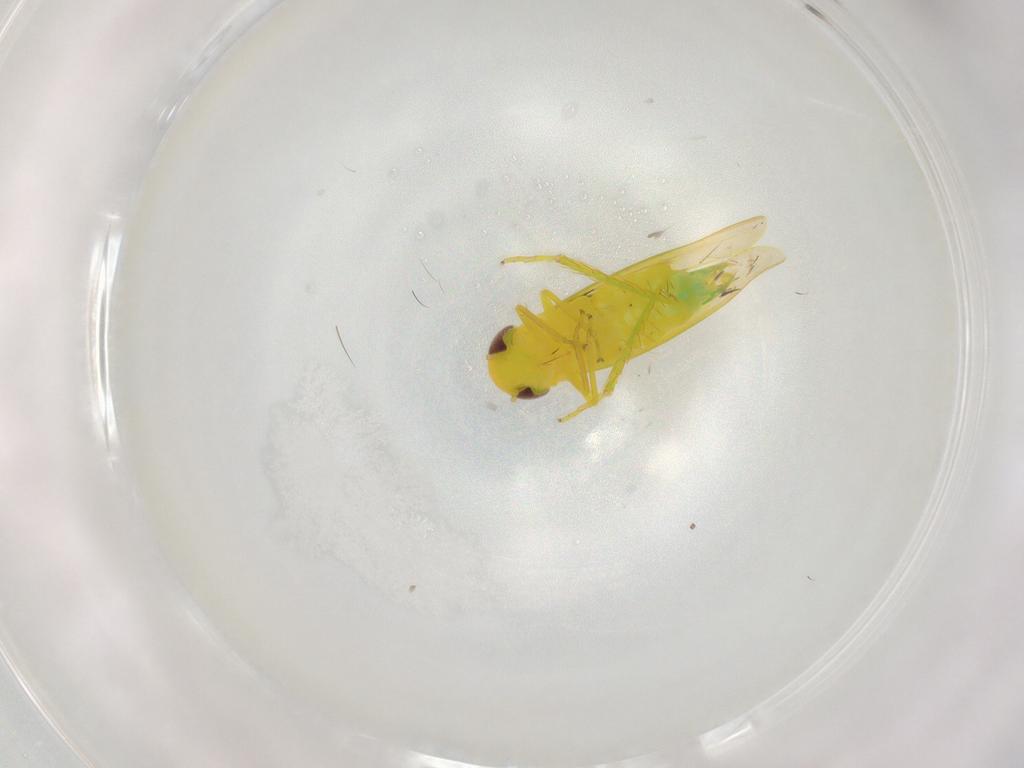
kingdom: Animalia
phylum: Arthropoda
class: Insecta
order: Hemiptera
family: Cicadellidae
